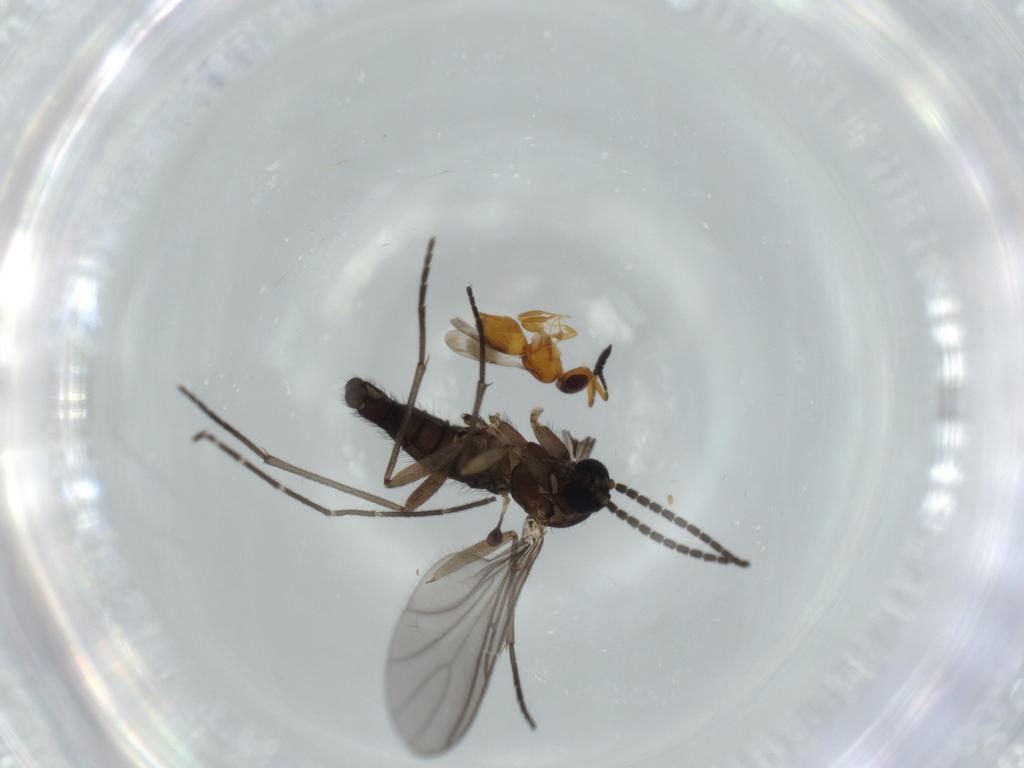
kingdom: Animalia
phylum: Arthropoda
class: Insecta
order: Diptera
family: Sciaridae
